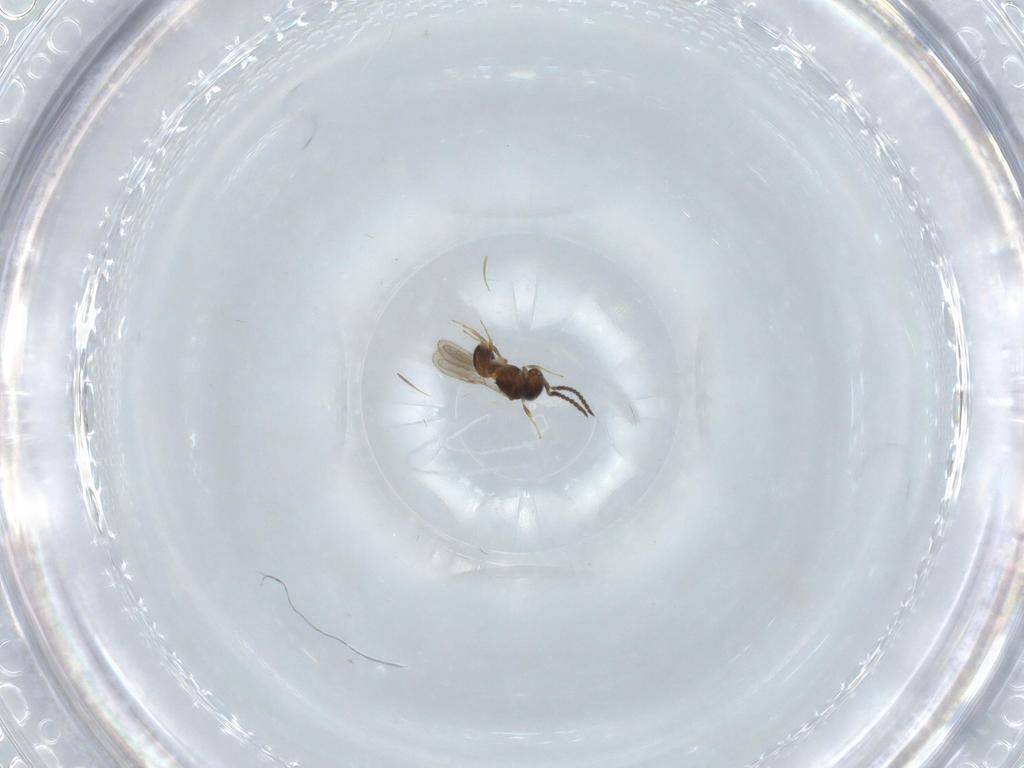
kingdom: Animalia
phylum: Arthropoda
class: Insecta
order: Hymenoptera
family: Scelionidae
